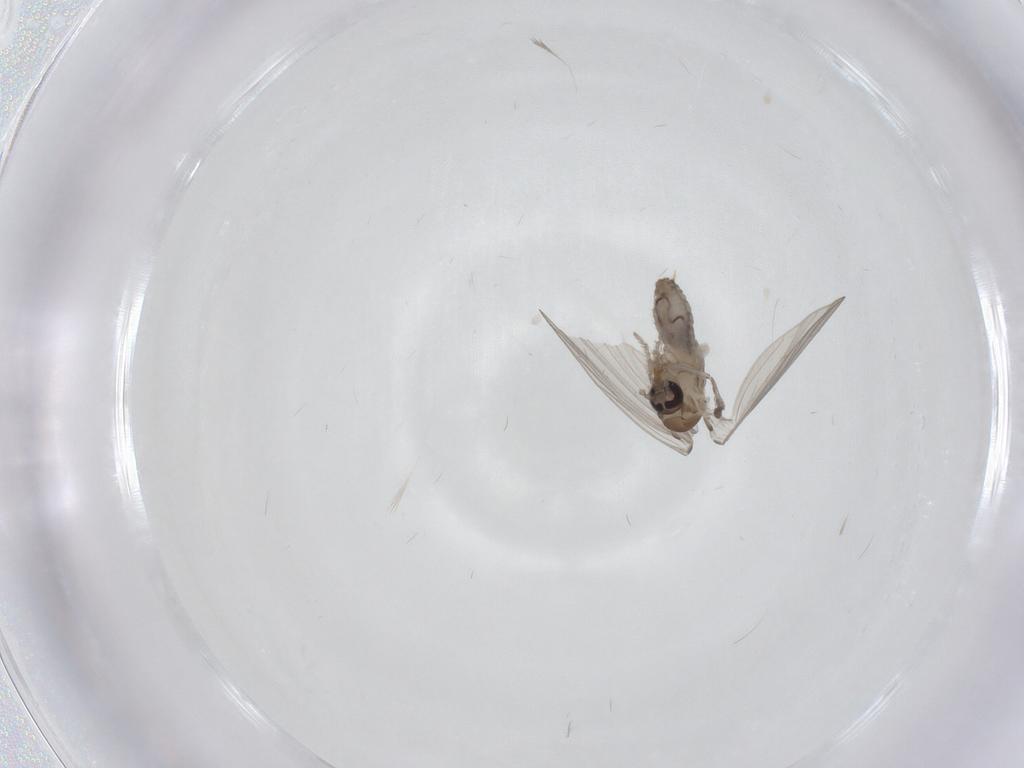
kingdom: Animalia
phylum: Arthropoda
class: Insecta
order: Diptera
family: Psychodidae
